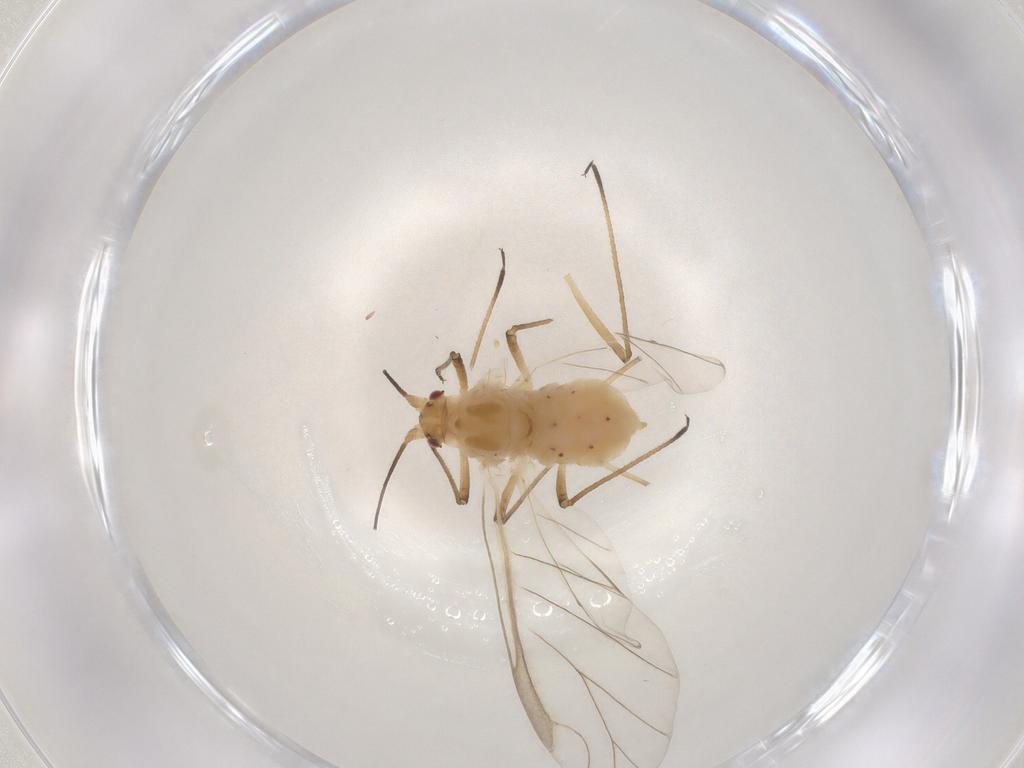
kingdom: Animalia
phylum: Arthropoda
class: Insecta
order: Hemiptera
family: Aphididae
